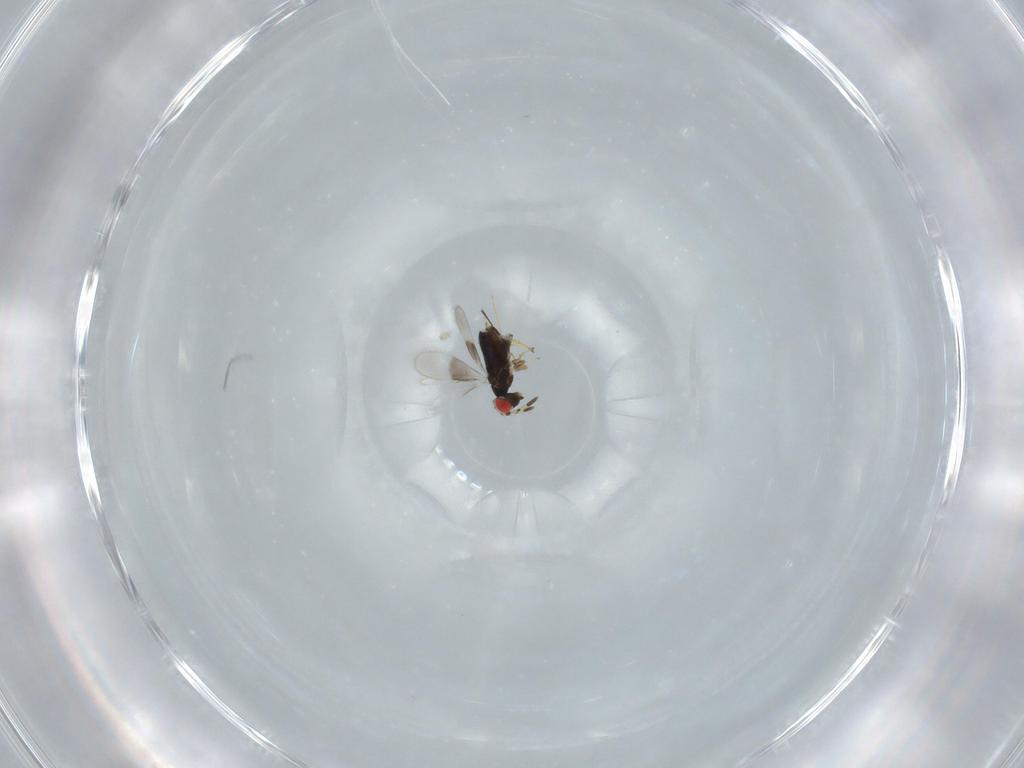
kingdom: Animalia
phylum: Arthropoda
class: Insecta
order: Hymenoptera
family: Azotidae
